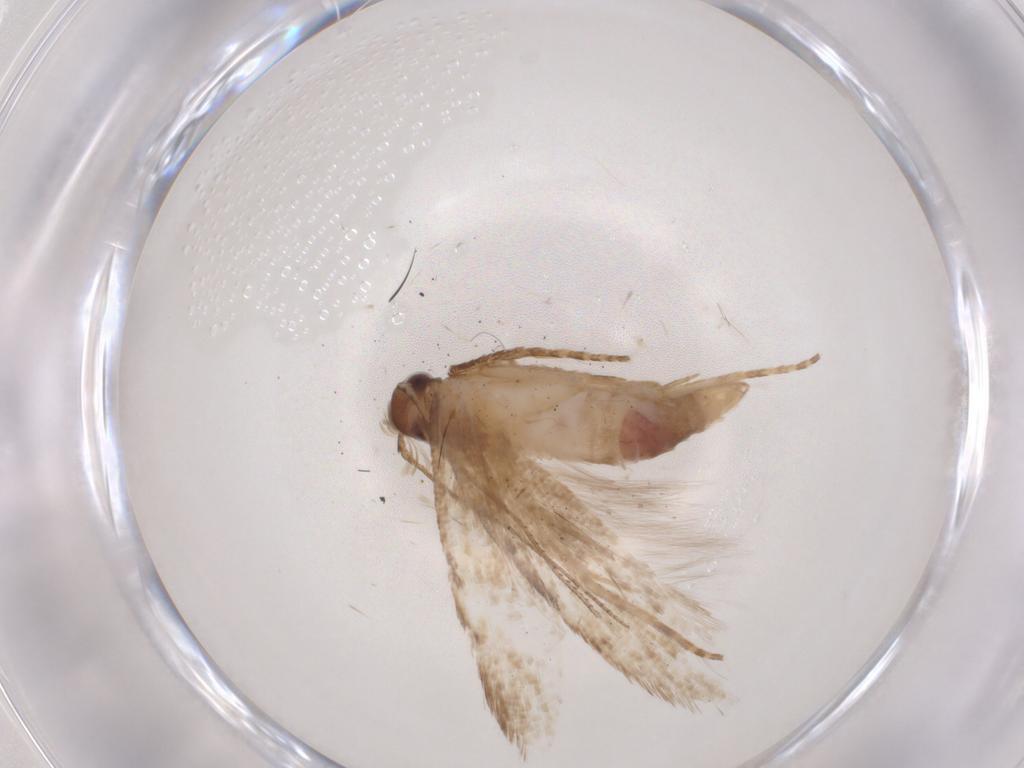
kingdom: Animalia
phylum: Arthropoda
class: Insecta
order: Lepidoptera
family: Gelechiidae
